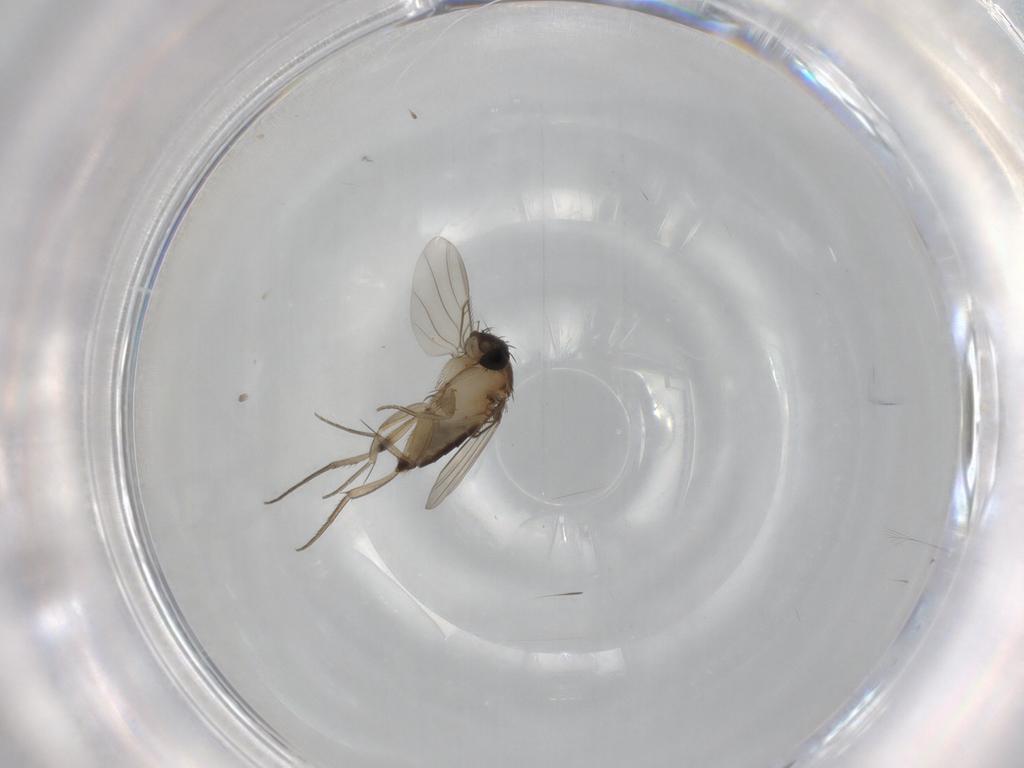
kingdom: Animalia
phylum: Arthropoda
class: Insecta
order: Diptera
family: Phoridae
